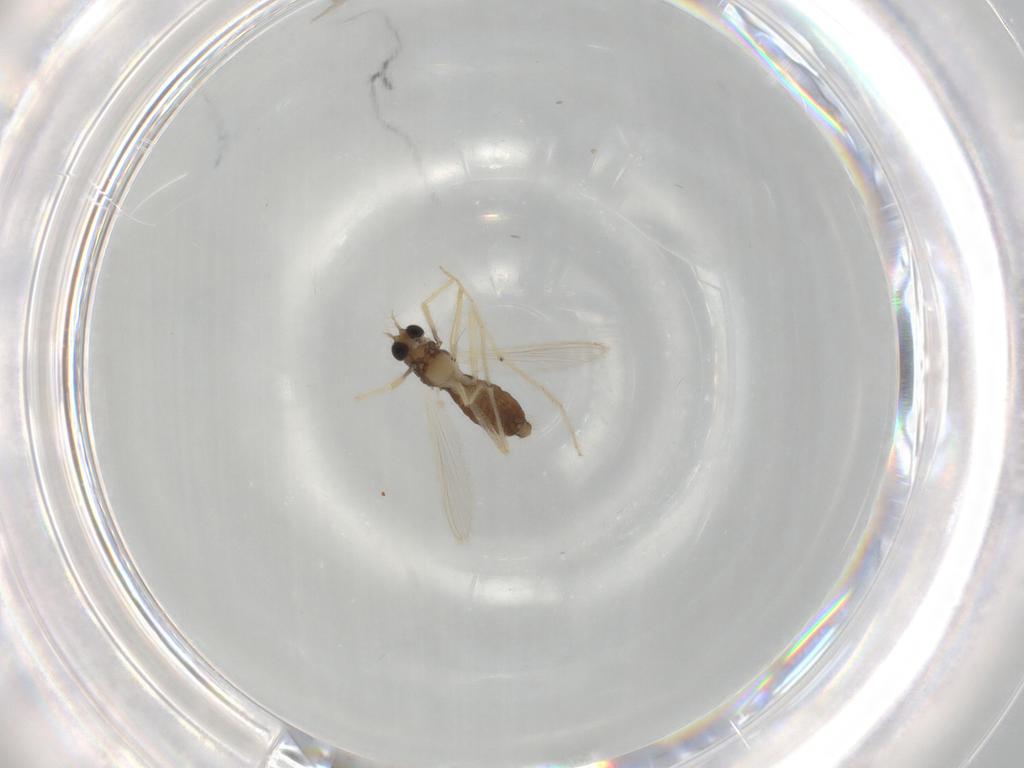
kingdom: Animalia
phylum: Arthropoda
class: Insecta
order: Diptera
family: Chironomidae
